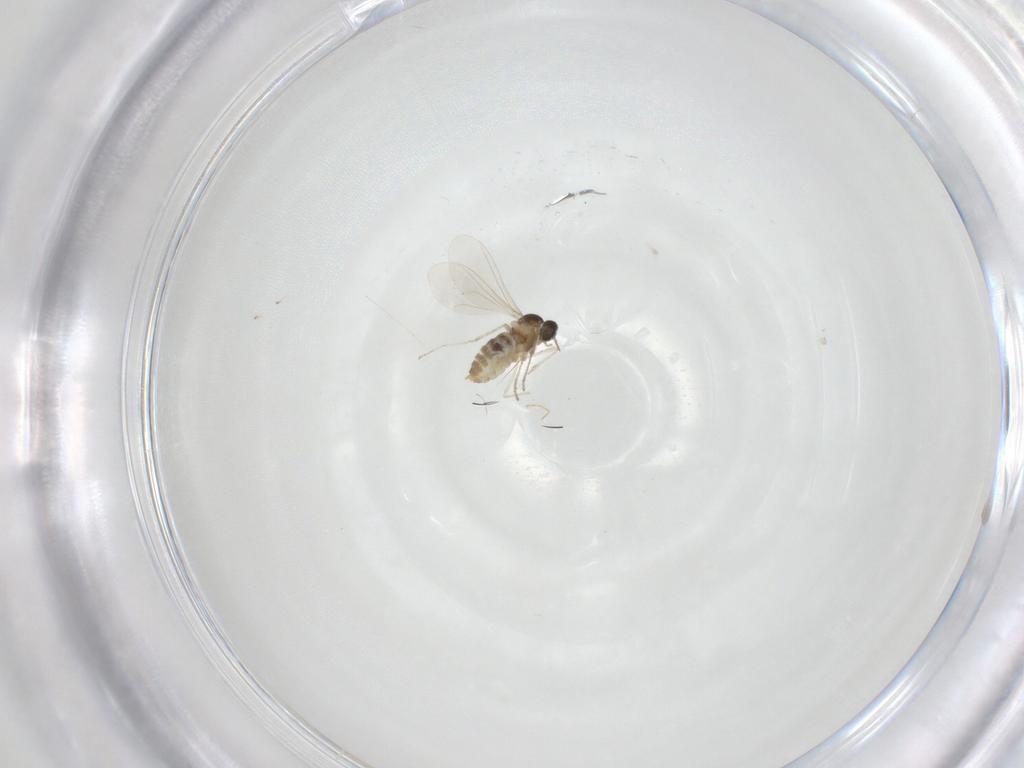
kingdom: Animalia
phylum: Arthropoda
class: Insecta
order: Diptera
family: Cecidomyiidae
